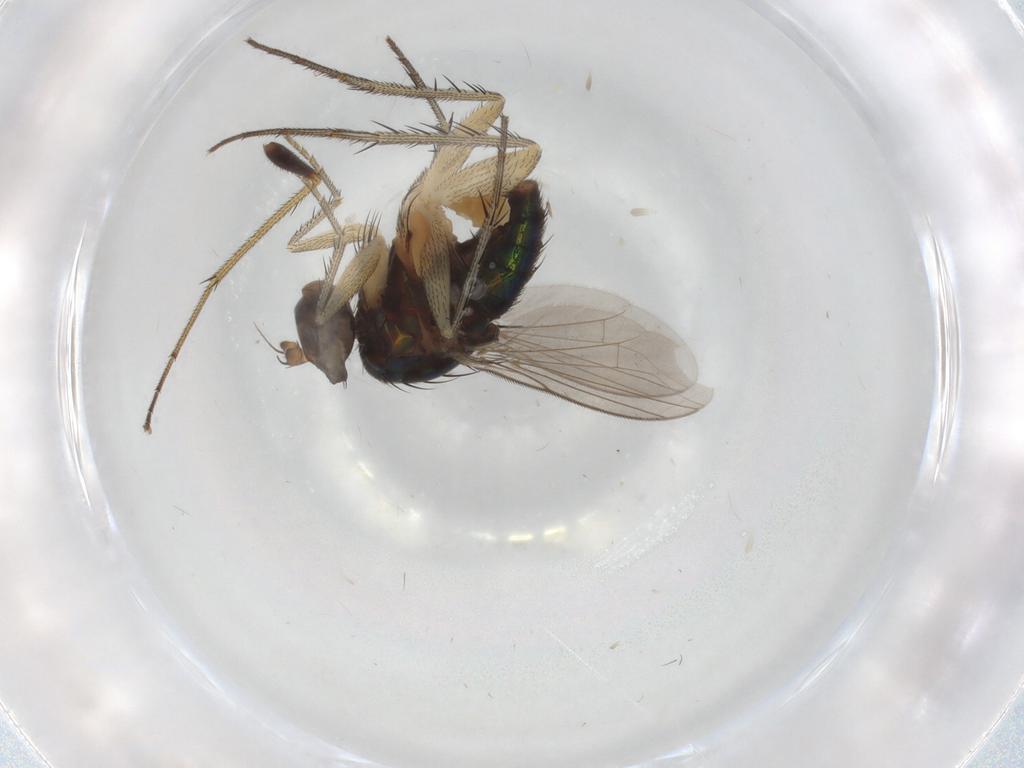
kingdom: Animalia
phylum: Arthropoda
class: Insecta
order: Diptera
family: Dolichopodidae
